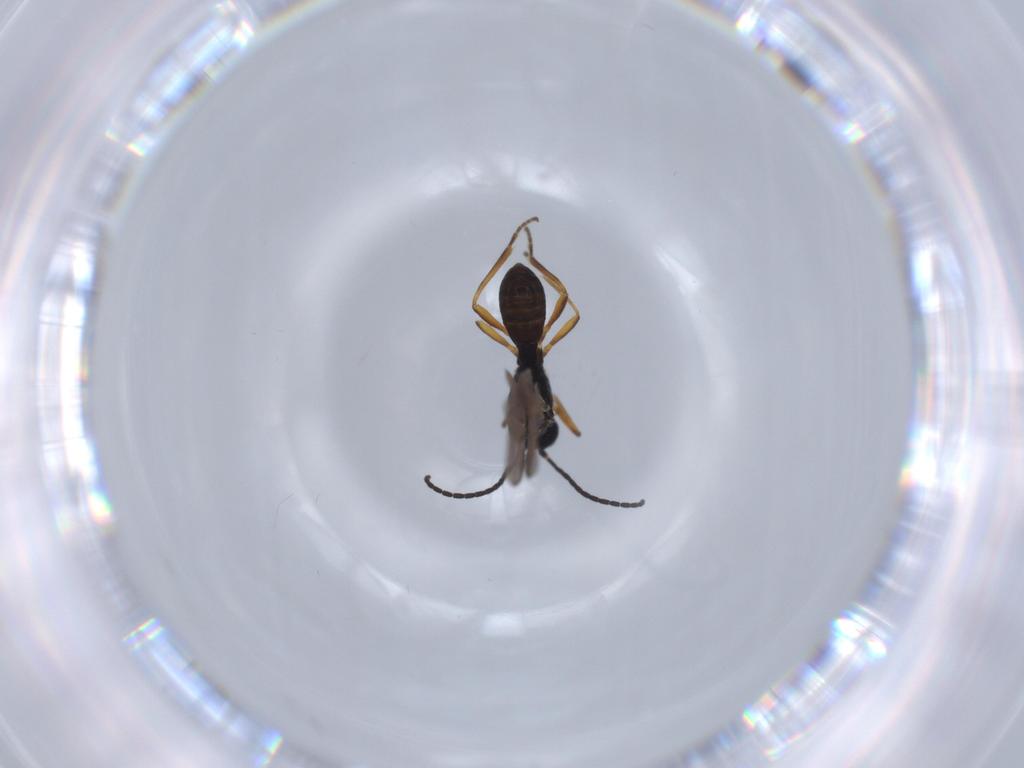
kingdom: Animalia
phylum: Arthropoda
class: Insecta
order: Hymenoptera
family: Braconidae
